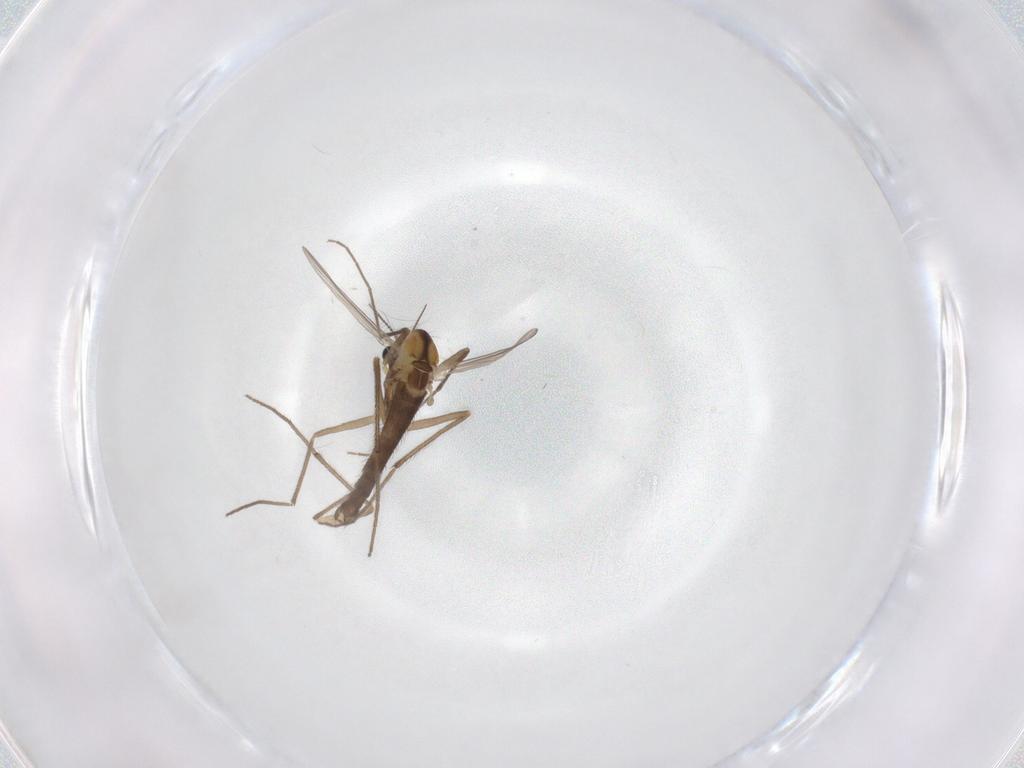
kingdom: Animalia
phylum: Arthropoda
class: Insecta
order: Diptera
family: Chironomidae
